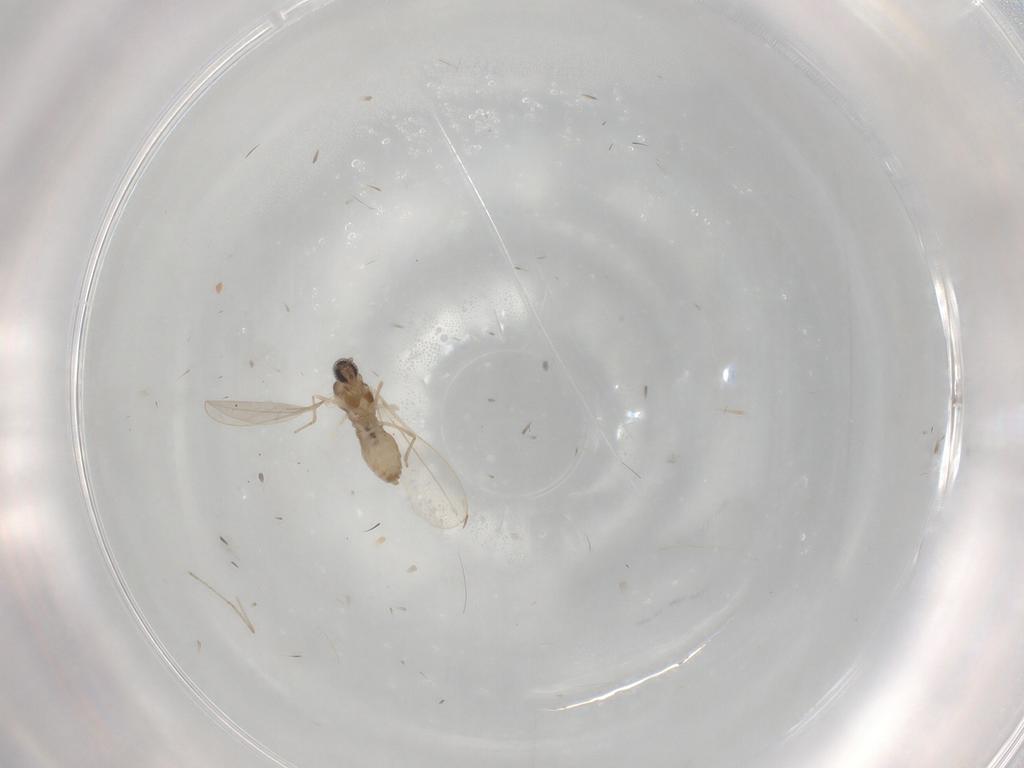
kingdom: Animalia
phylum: Arthropoda
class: Insecta
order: Diptera
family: Cecidomyiidae
